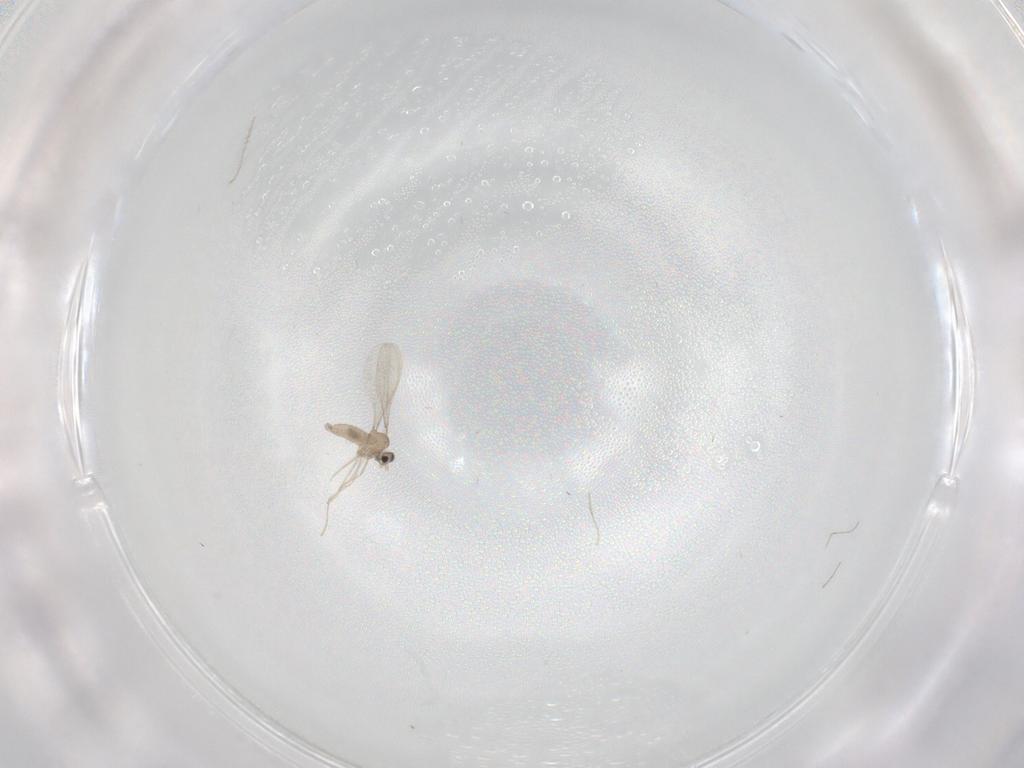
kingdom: Animalia
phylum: Arthropoda
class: Insecta
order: Diptera
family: Cecidomyiidae
